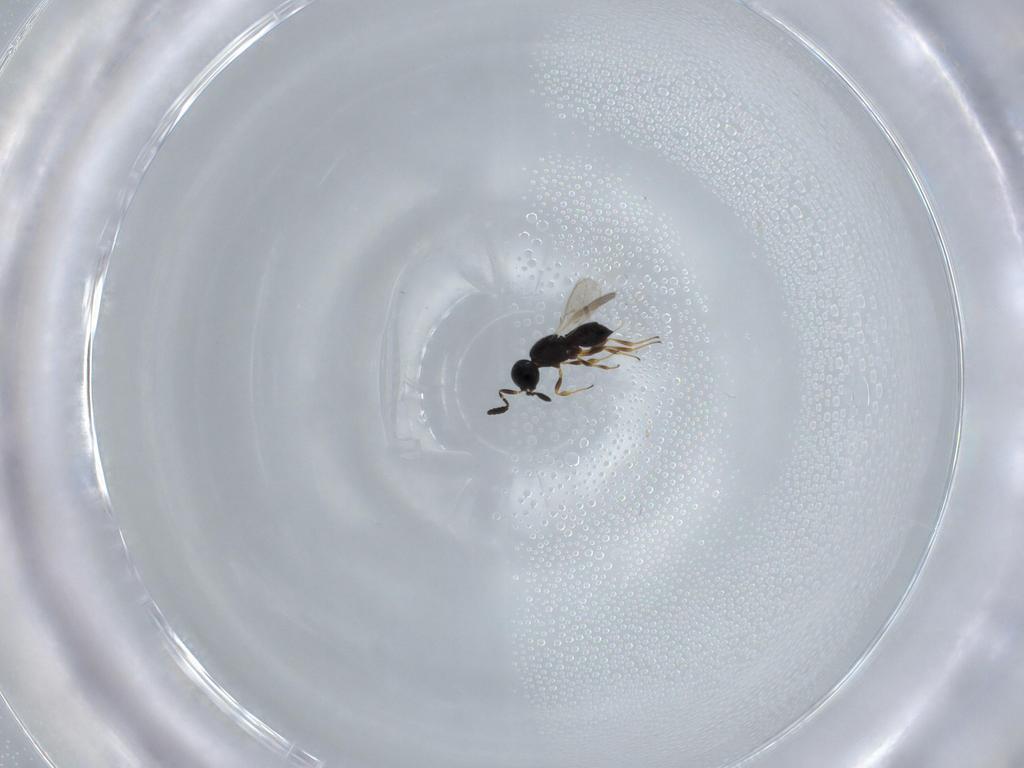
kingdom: Animalia
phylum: Arthropoda
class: Insecta
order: Hymenoptera
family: Scelionidae
